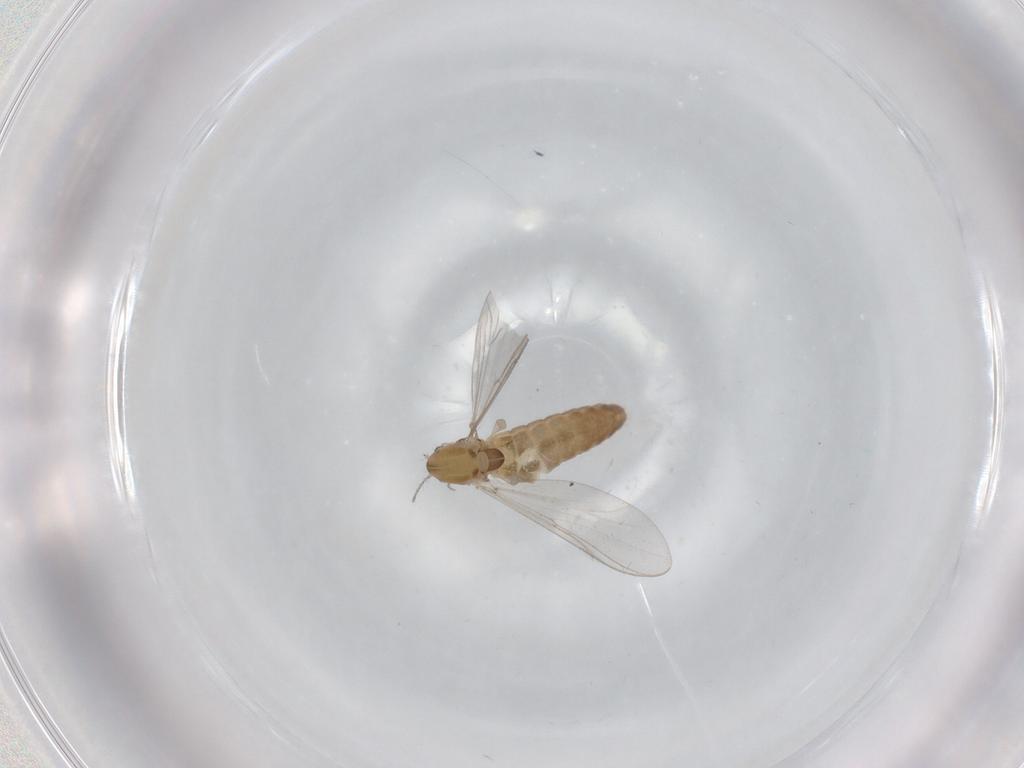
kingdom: Animalia
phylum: Arthropoda
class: Insecta
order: Diptera
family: Chironomidae
